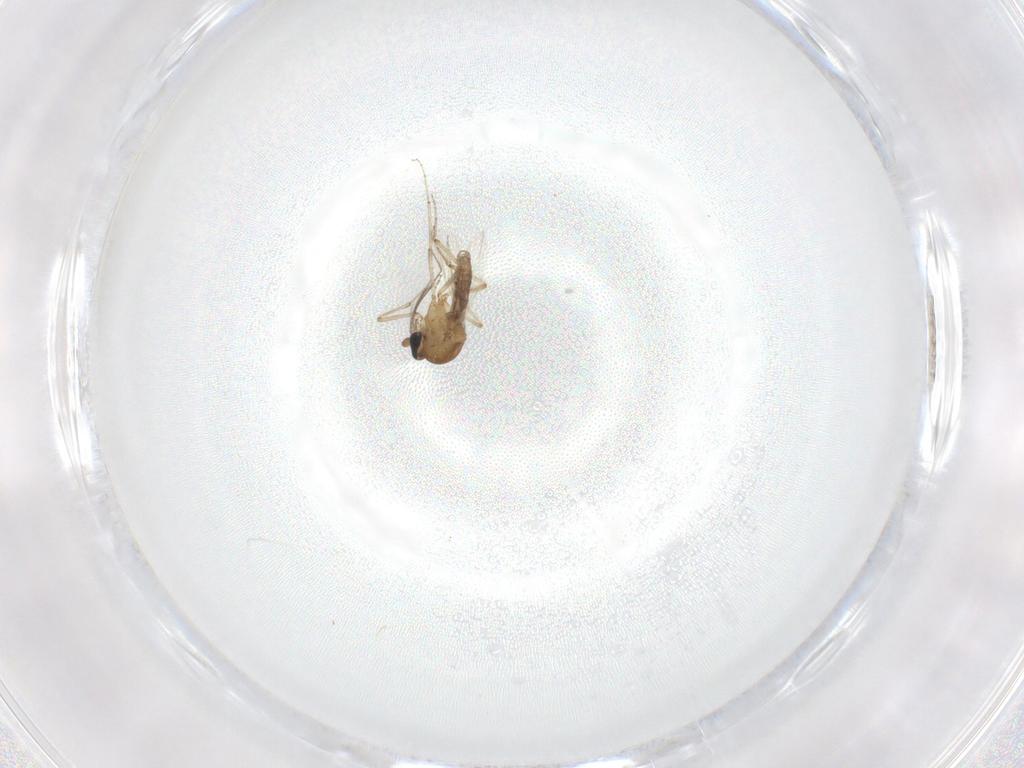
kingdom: Animalia
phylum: Arthropoda
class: Insecta
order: Diptera
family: Ceratopogonidae
